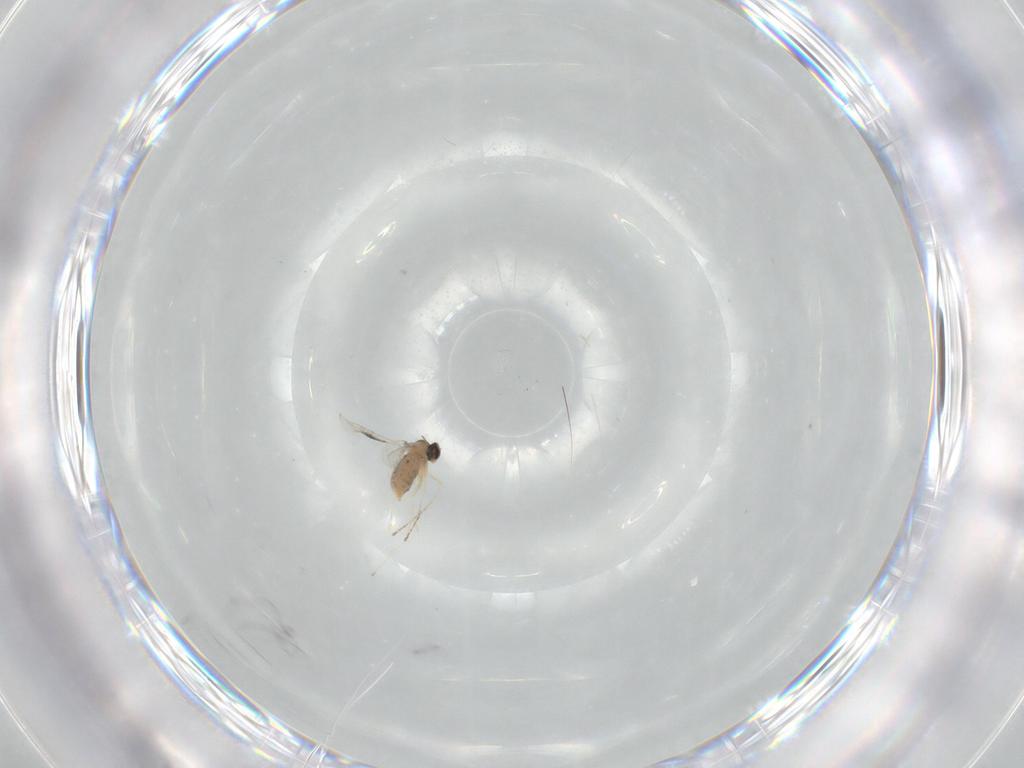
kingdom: Animalia
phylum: Arthropoda
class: Insecta
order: Diptera
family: Cecidomyiidae
